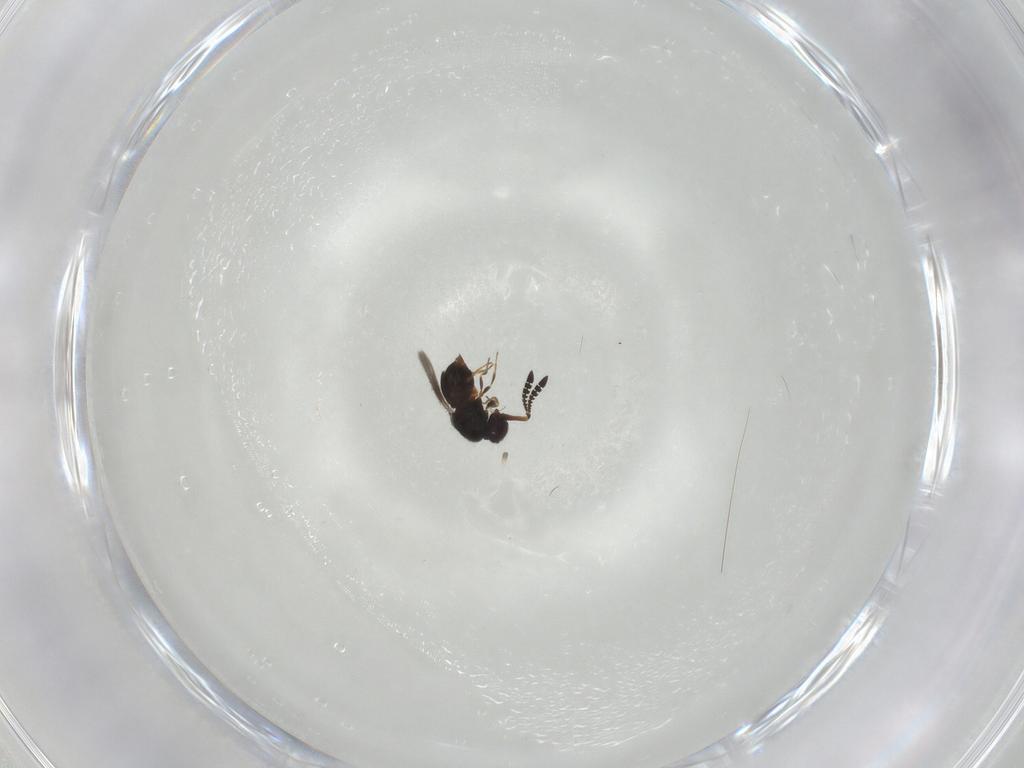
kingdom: Animalia
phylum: Arthropoda
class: Insecta
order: Hymenoptera
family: Ceraphronidae
